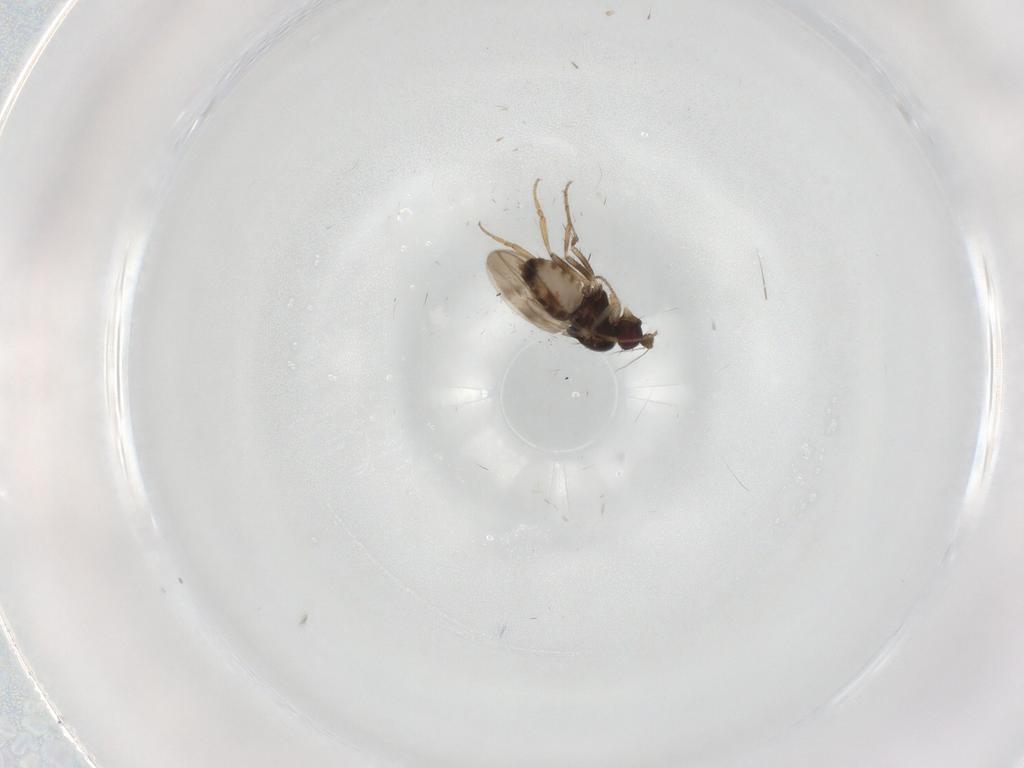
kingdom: Animalia
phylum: Arthropoda
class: Insecta
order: Diptera
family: Sphaeroceridae
